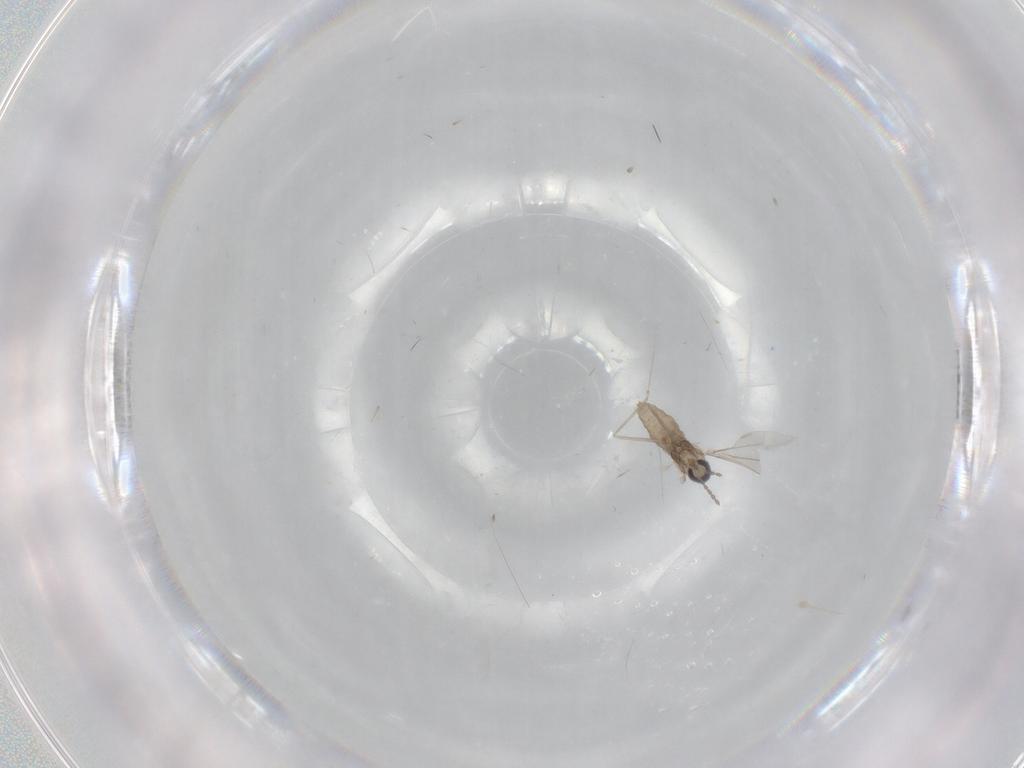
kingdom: Animalia
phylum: Arthropoda
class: Insecta
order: Diptera
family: Cecidomyiidae
